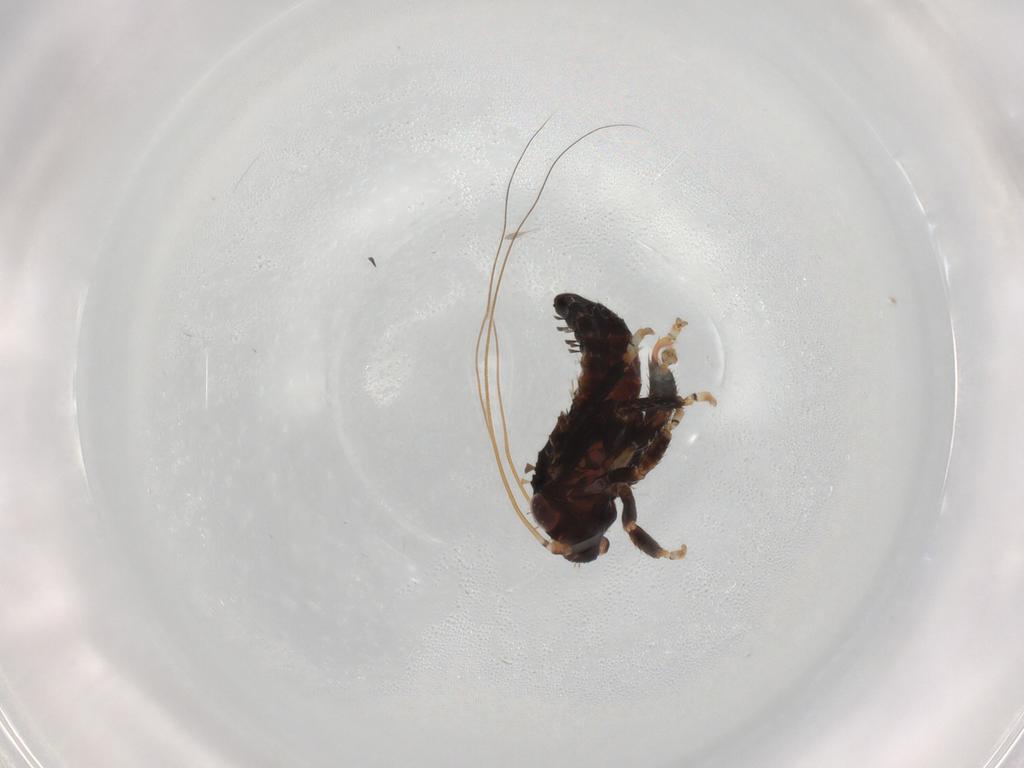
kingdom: Animalia
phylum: Arthropoda
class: Insecta
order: Hemiptera
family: Cicadellidae
